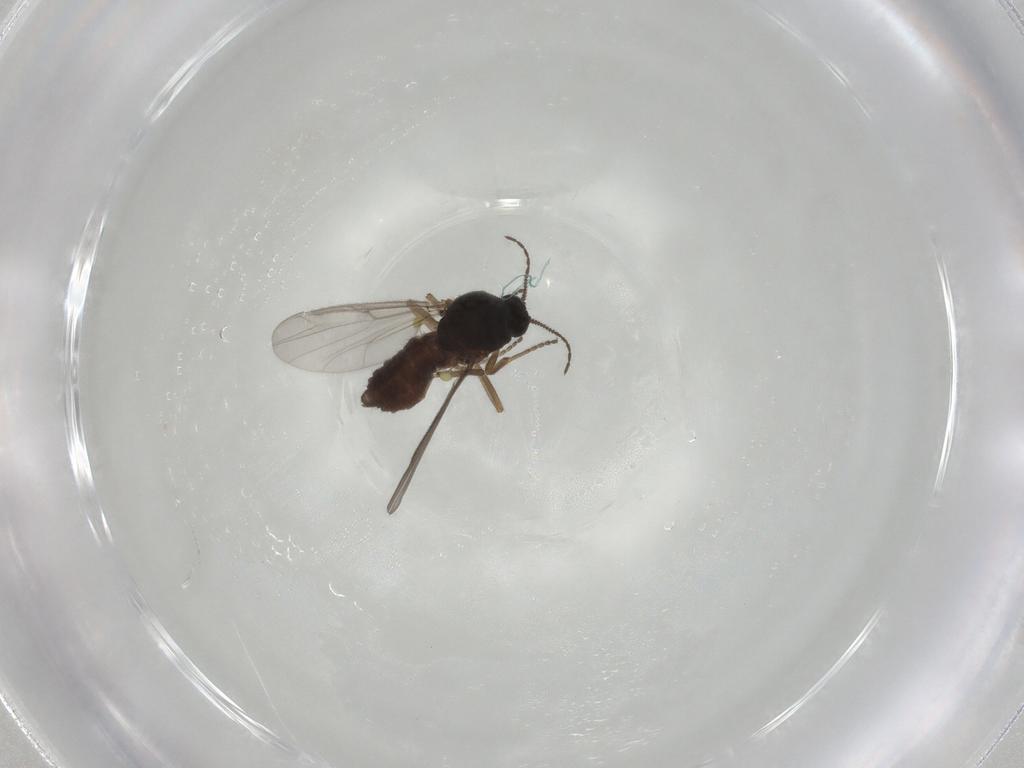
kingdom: Animalia
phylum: Arthropoda
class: Insecta
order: Diptera
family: Ceratopogonidae
